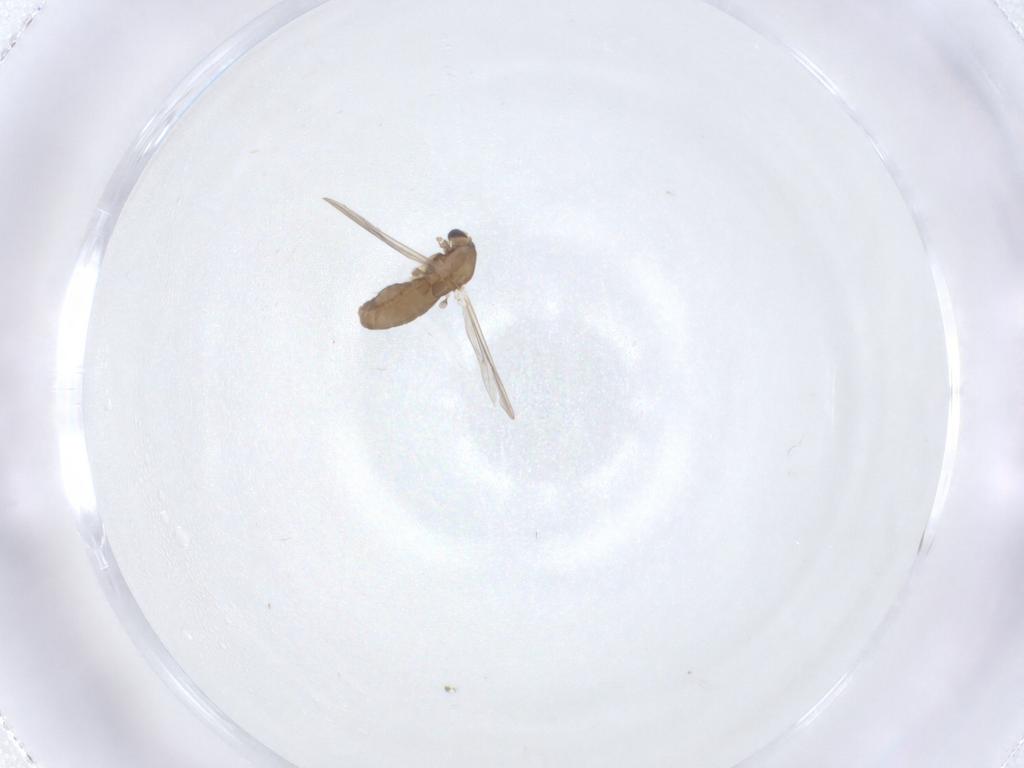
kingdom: Animalia
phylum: Arthropoda
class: Insecta
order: Diptera
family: Chironomidae
